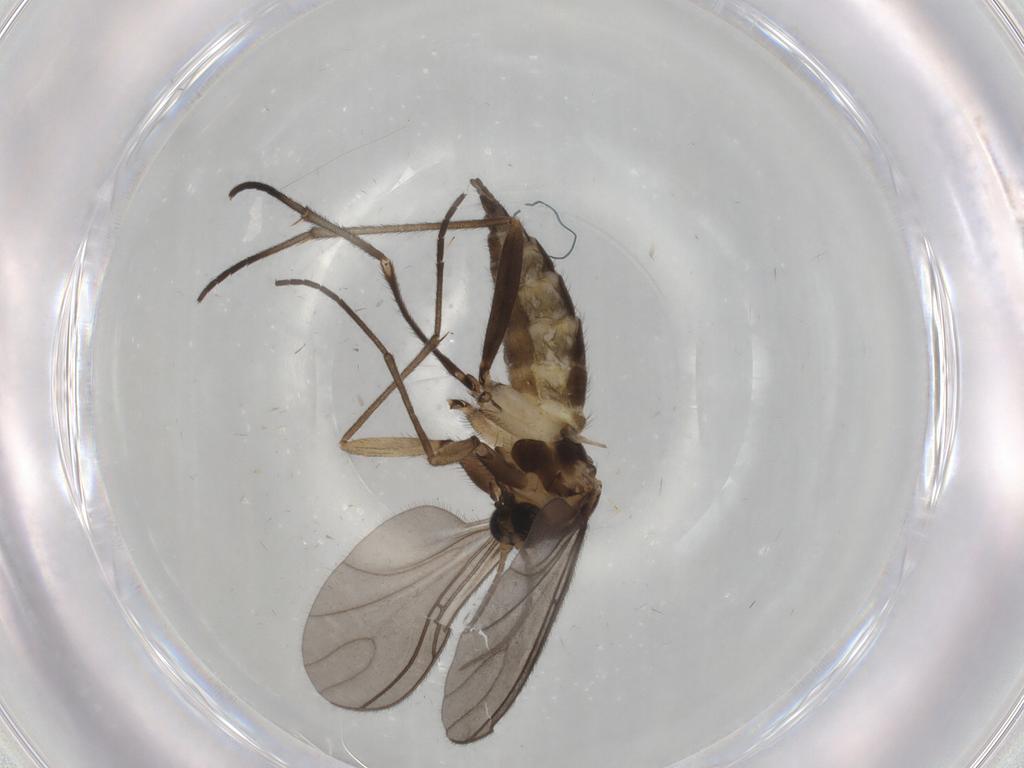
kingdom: Animalia
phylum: Arthropoda
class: Insecta
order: Diptera
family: Sciaridae
